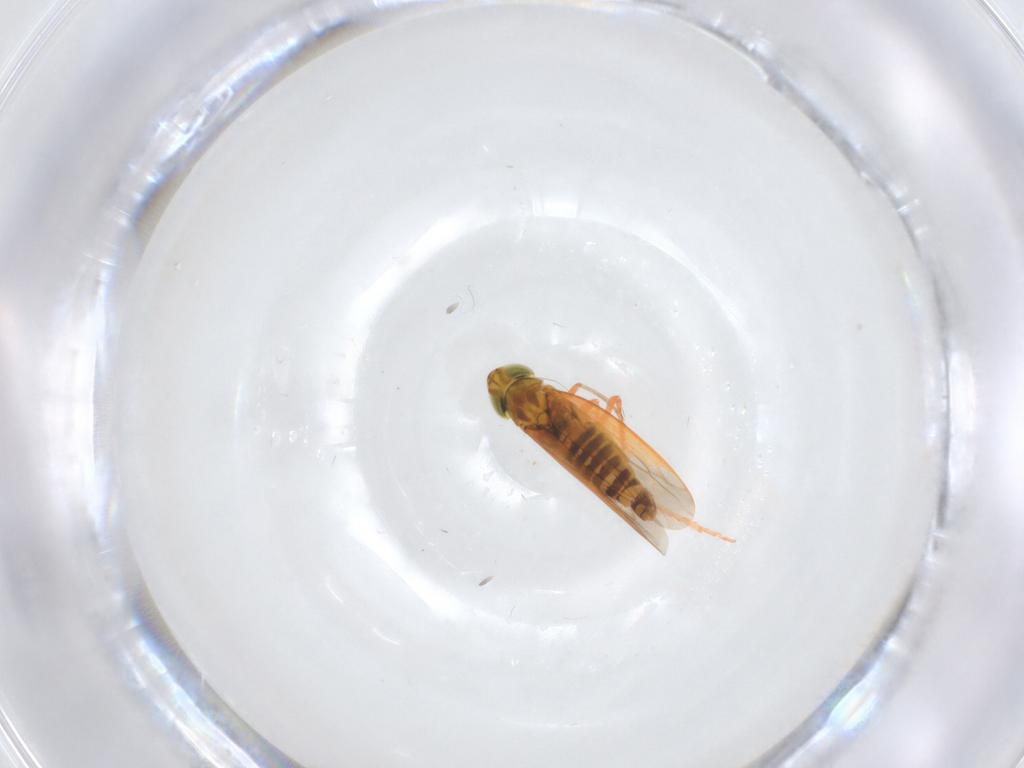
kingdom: Animalia
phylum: Arthropoda
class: Insecta
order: Hemiptera
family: Cicadellidae
